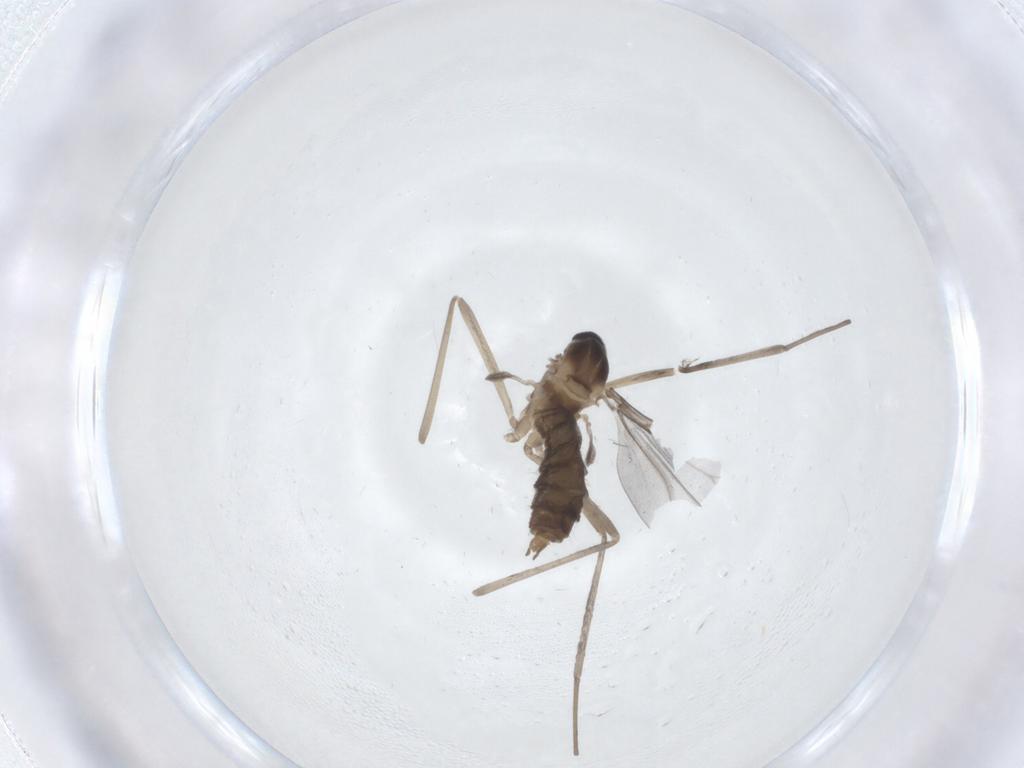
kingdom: Animalia
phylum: Arthropoda
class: Insecta
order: Diptera
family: Cecidomyiidae
